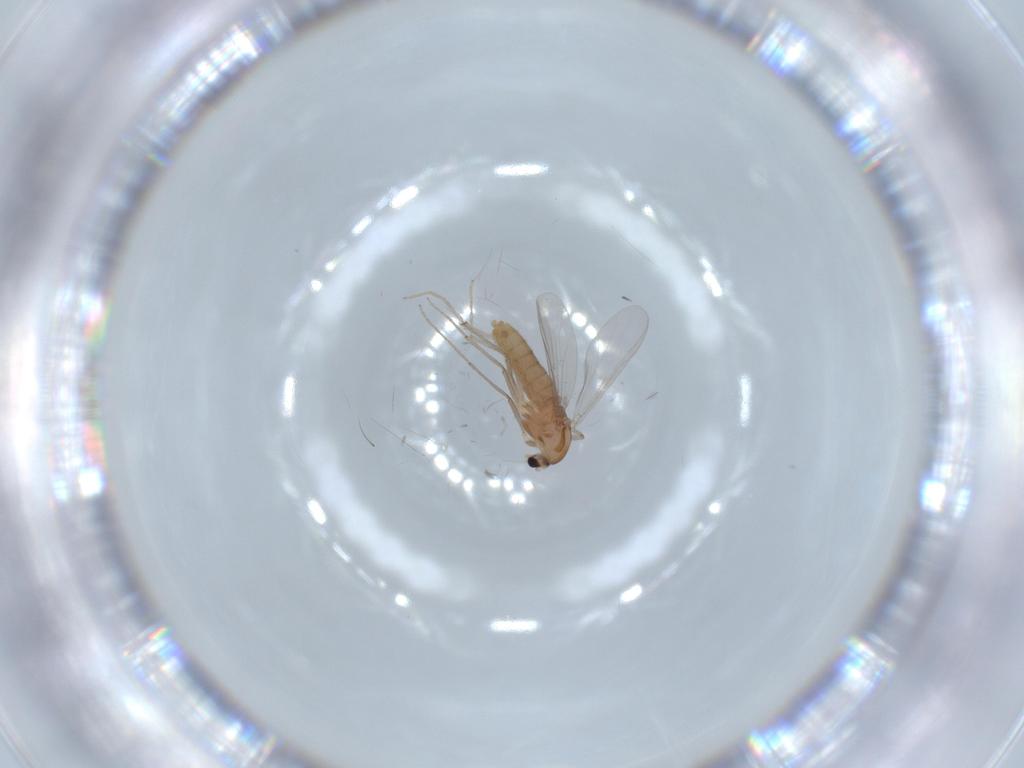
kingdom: Animalia
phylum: Arthropoda
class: Insecta
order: Diptera
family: Chironomidae
